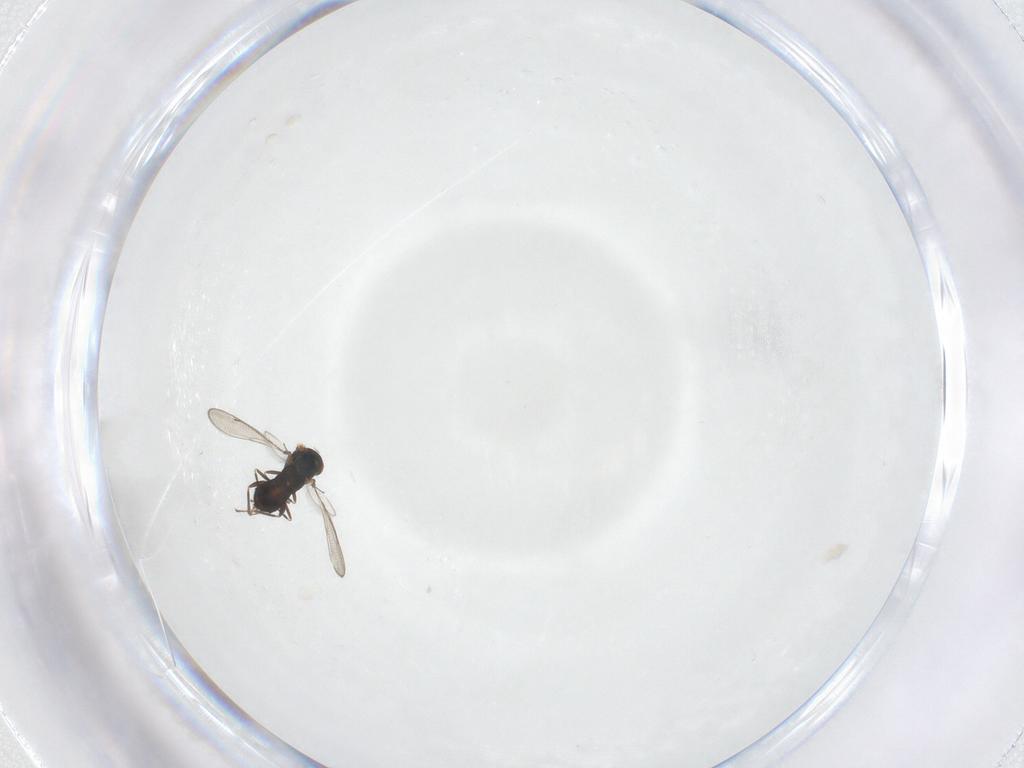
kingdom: Animalia
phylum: Arthropoda
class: Insecta
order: Hymenoptera
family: Eulophidae
